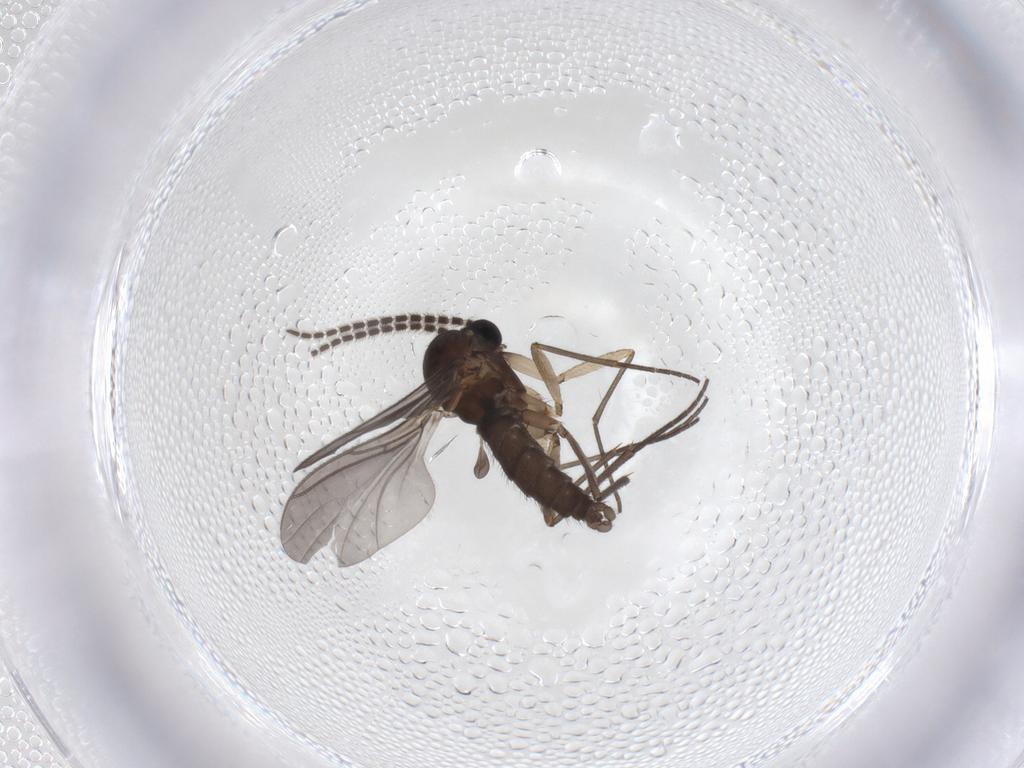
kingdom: Animalia
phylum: Arthropoda
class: Insecta
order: Diptera
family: Sciaridae
